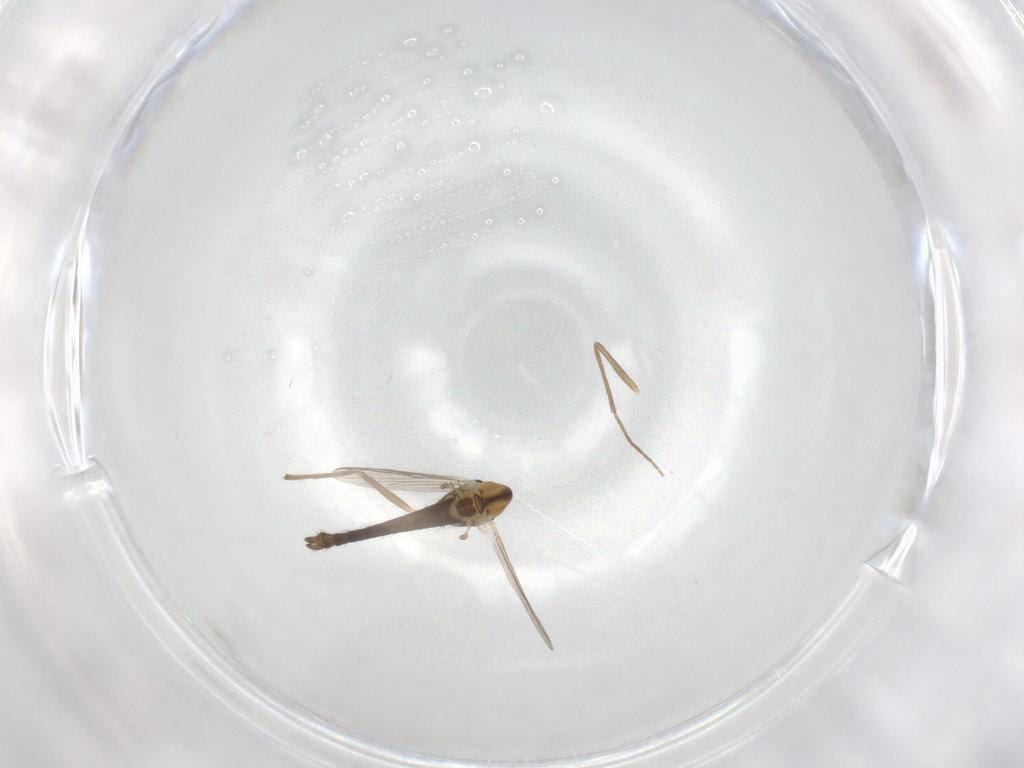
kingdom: Animalia
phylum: Arthropoda
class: Insecta
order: Diptera
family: Chironomidae
